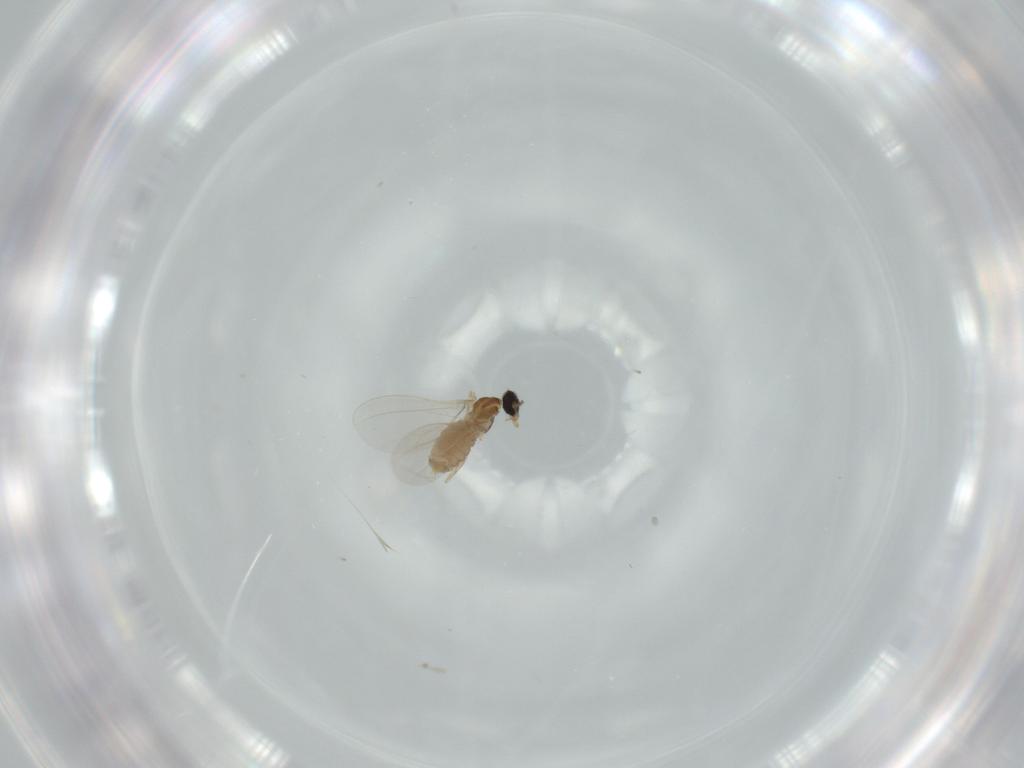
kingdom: Animalia
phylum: Arthropoda
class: Insecta
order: Diptera
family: Cecidomyiidae
